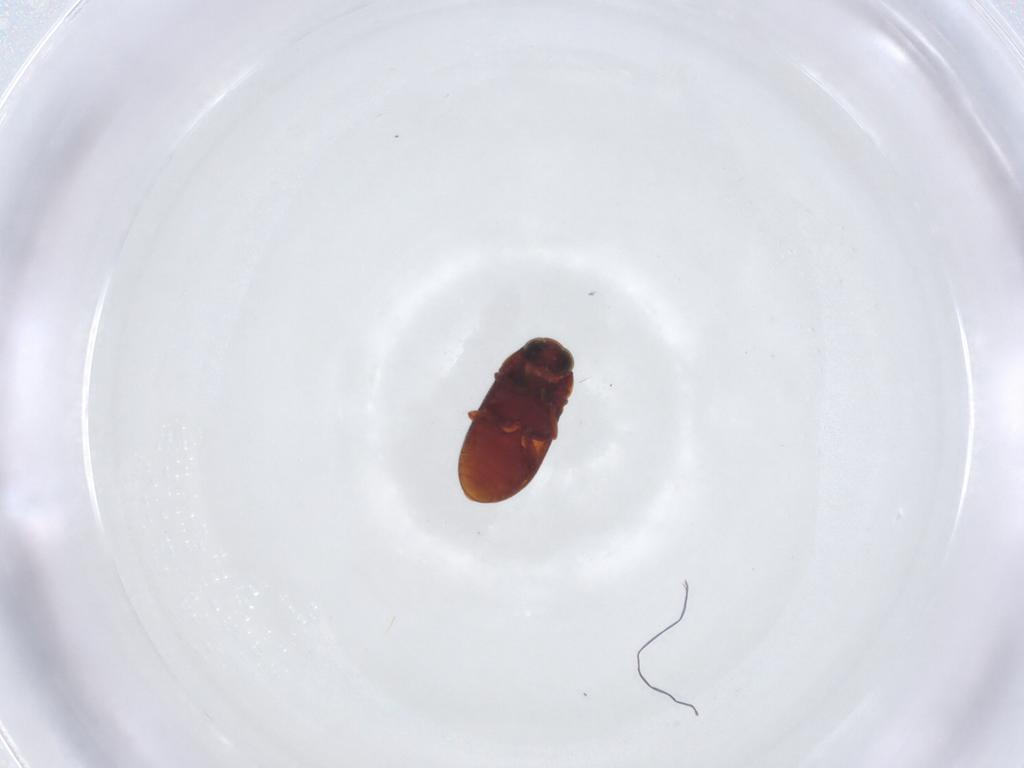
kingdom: Animalia
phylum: Arthropoda
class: Insecta
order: Coleoptera
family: Ptinidae
